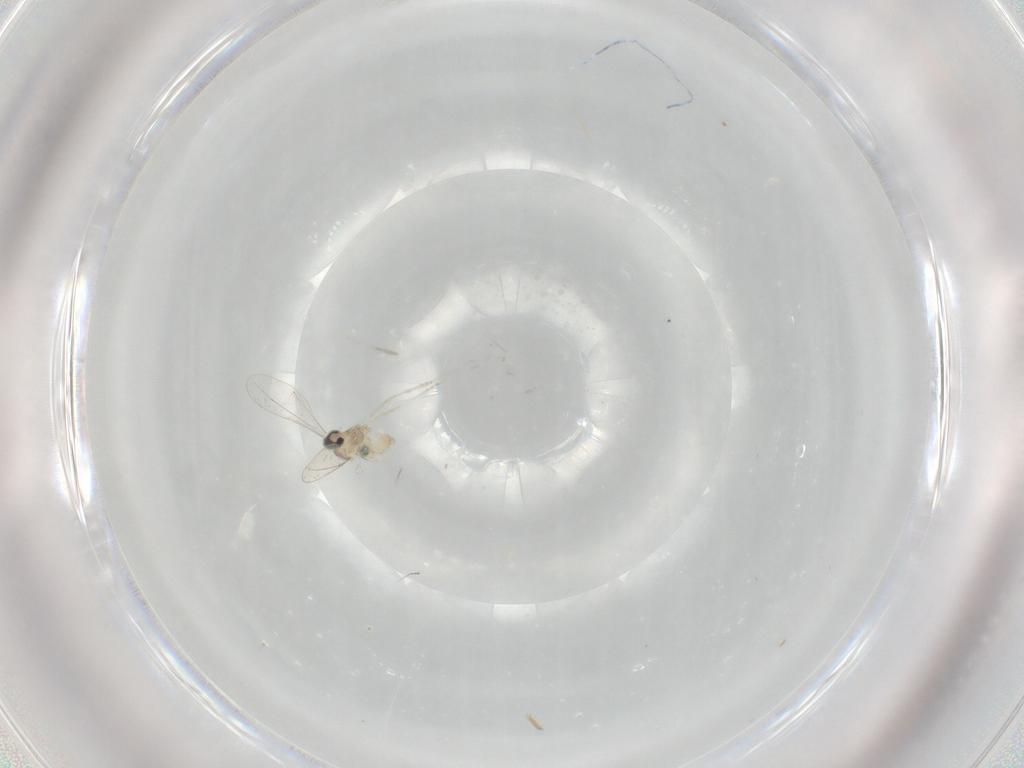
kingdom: Animalia
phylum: Arthropoda
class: Insecta
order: Diptera
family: Cecidomyiidae
